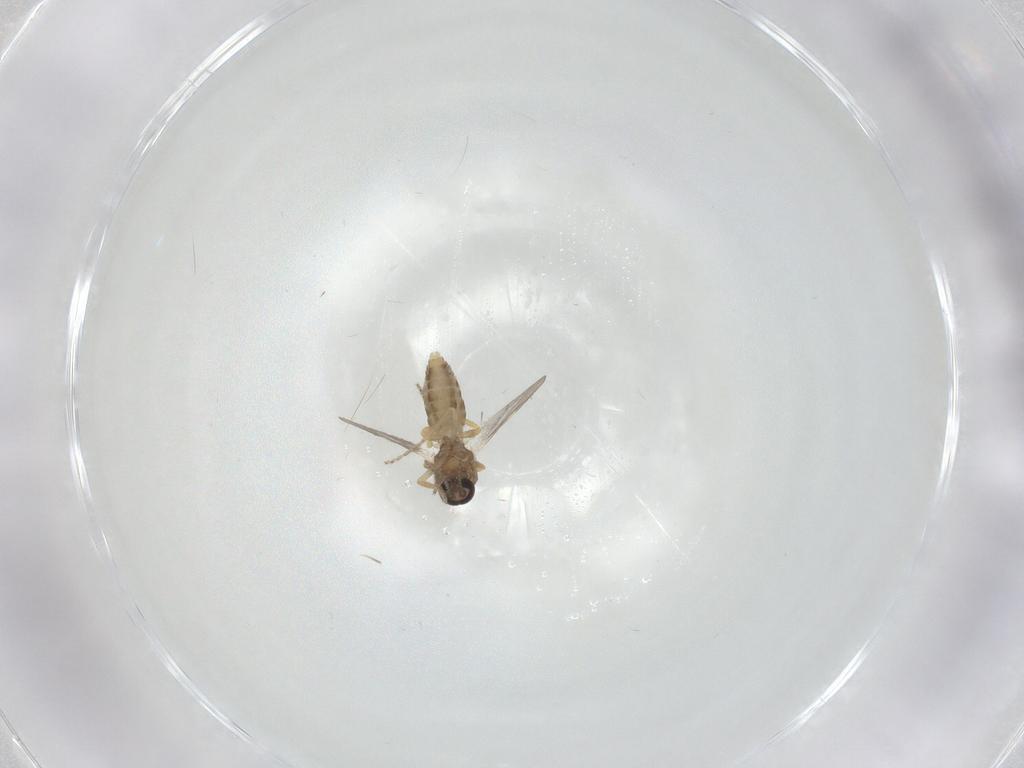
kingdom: Animalia
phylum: Arthropoda
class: Insecta
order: Diptera
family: Ceratopogonidae
